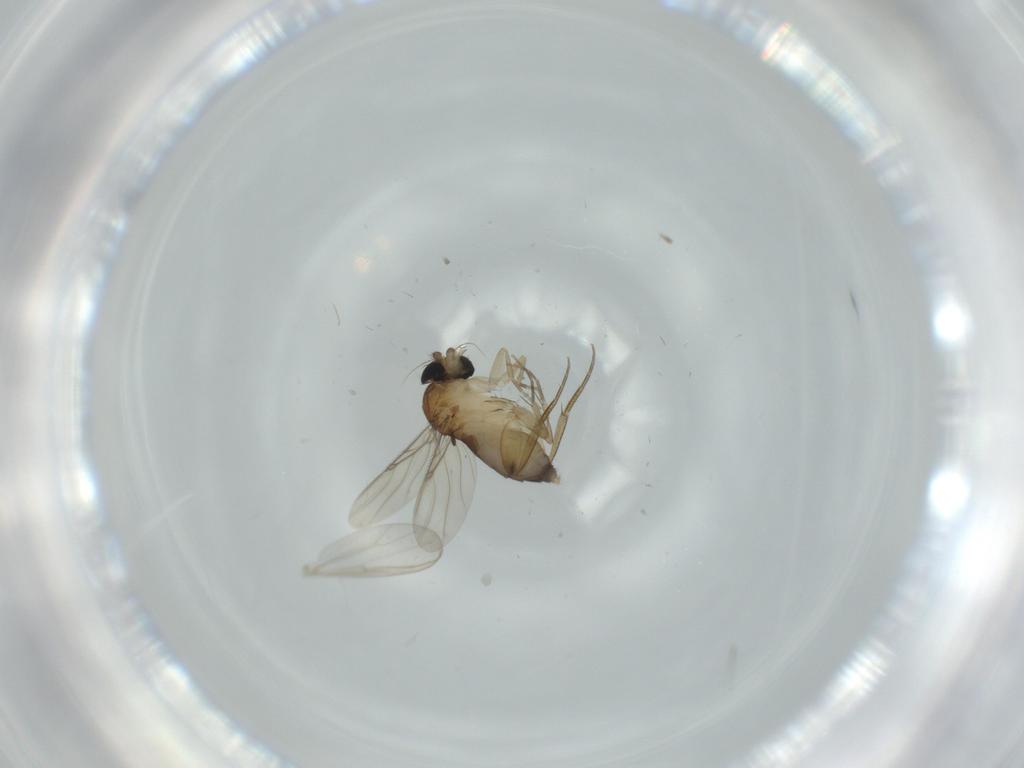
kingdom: Animalia
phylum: Arthropoda
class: Insecta
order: Diptera
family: Chironomidae
